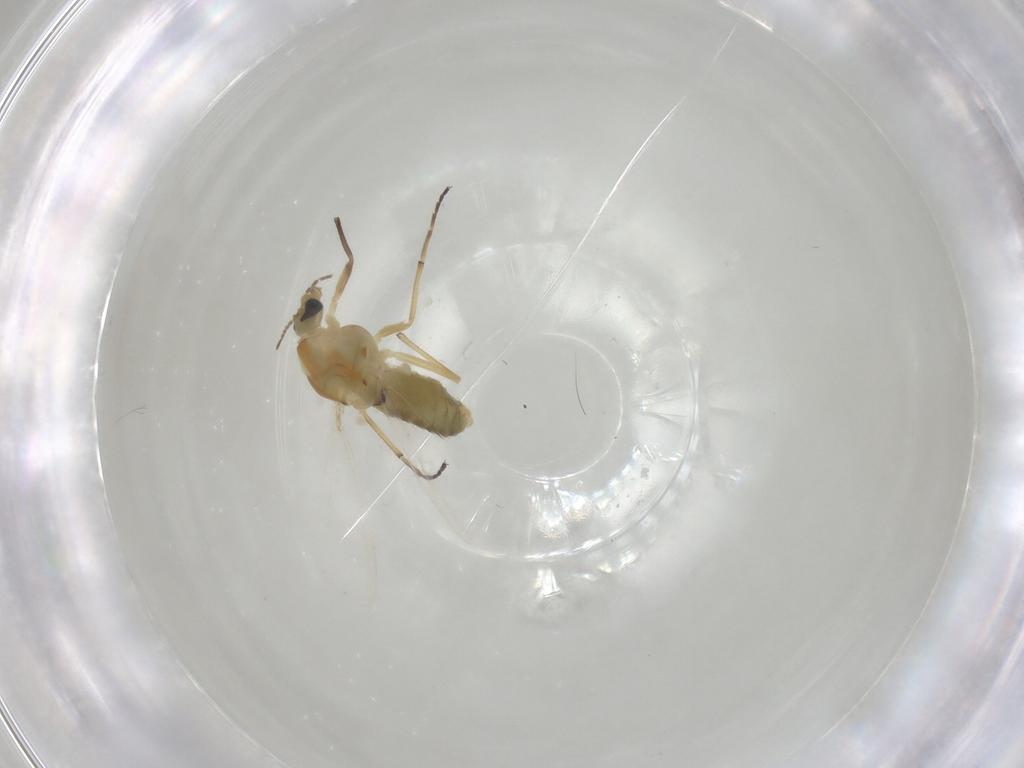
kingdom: Animalia
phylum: Arthropoda
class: Insecta
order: Diptera
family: Chironomidae
